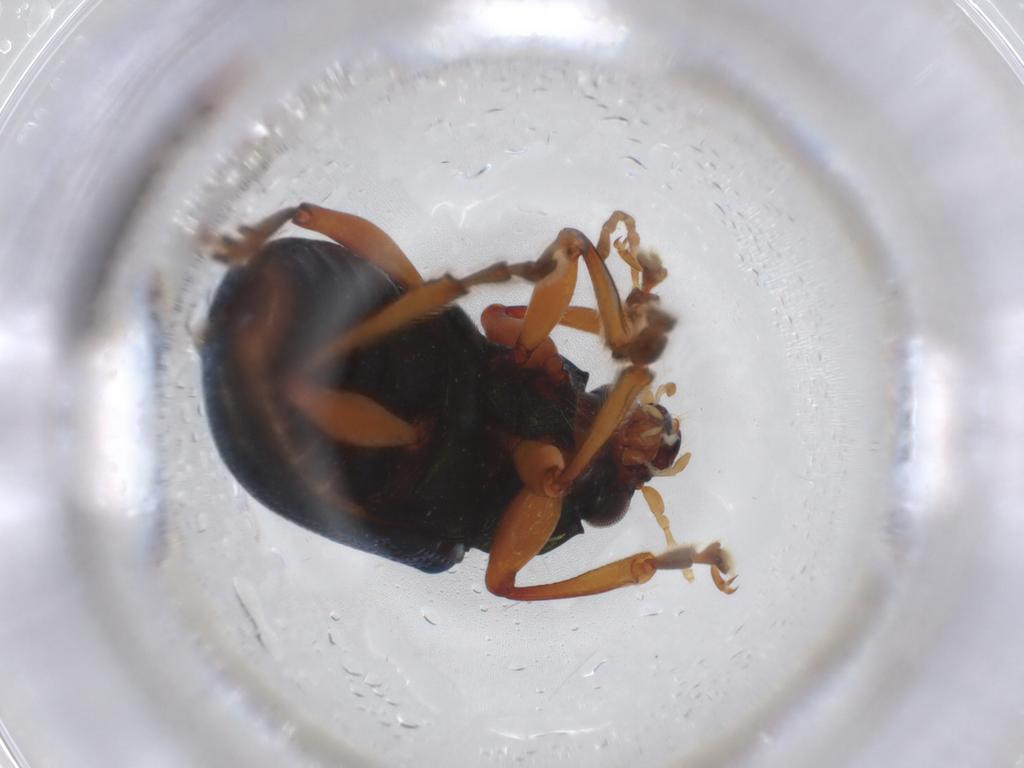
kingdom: Animalia
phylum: Arthropoda
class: Insecta
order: Coleoptera
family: Chrysomelidae
